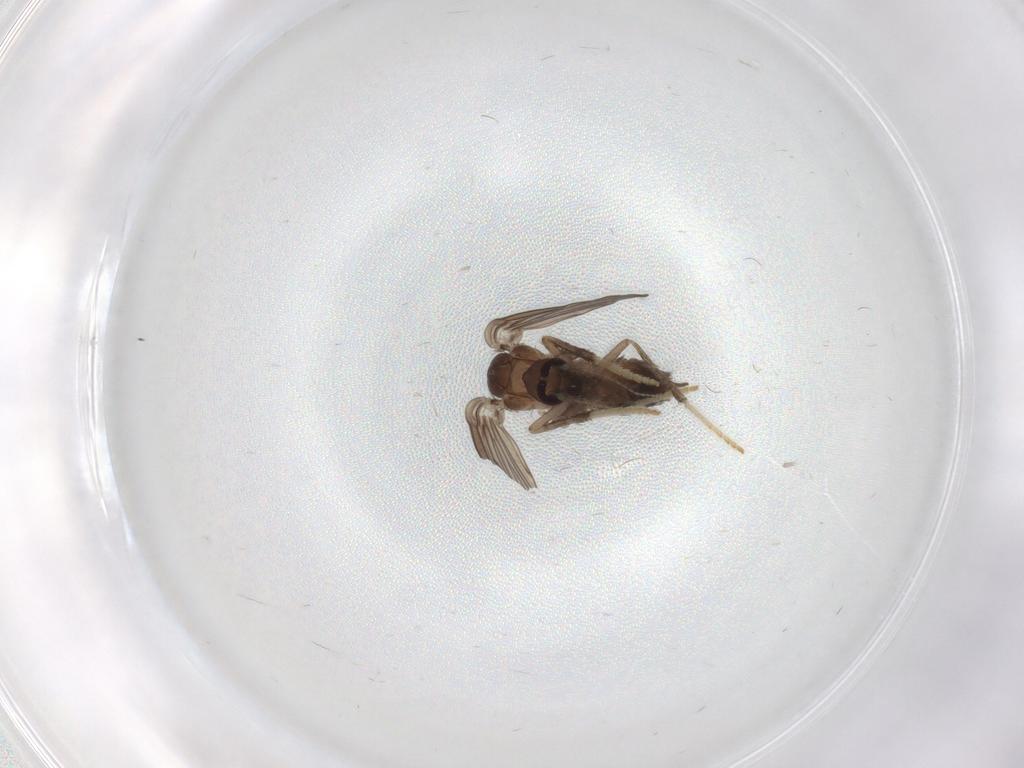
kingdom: Animalia
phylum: Arthropoda
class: Insecta
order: Diptera
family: Psychodidae
